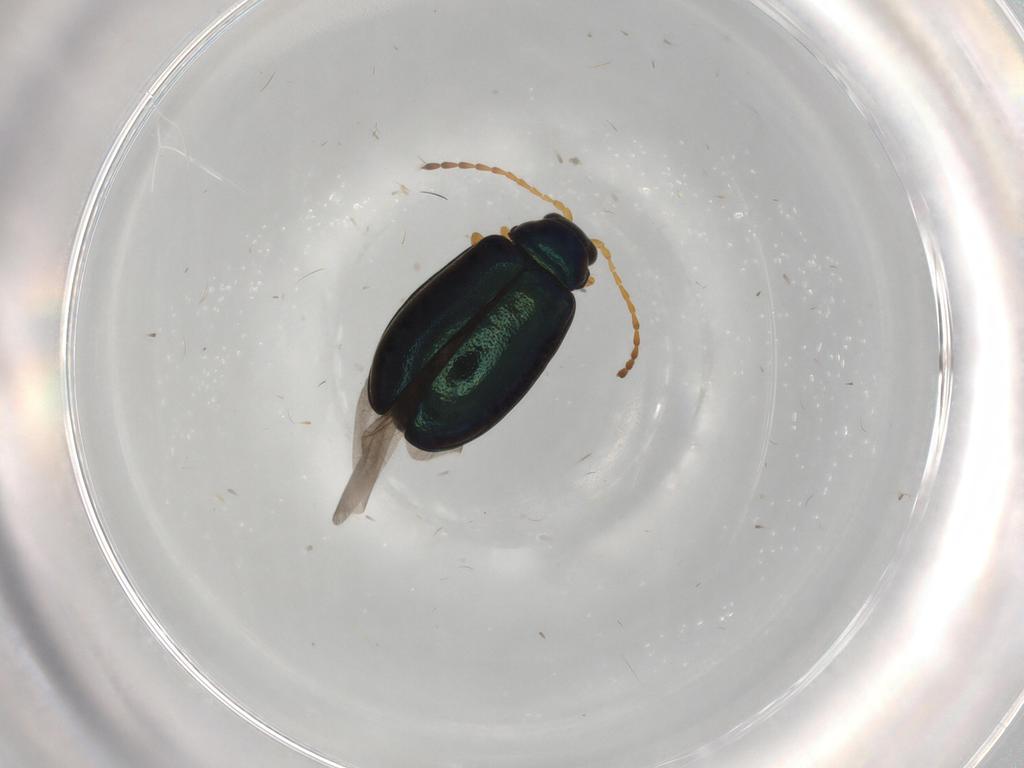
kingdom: Animalia
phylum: Arthropoda
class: Insecta
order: Coleoptera
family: Chrysomelidae
